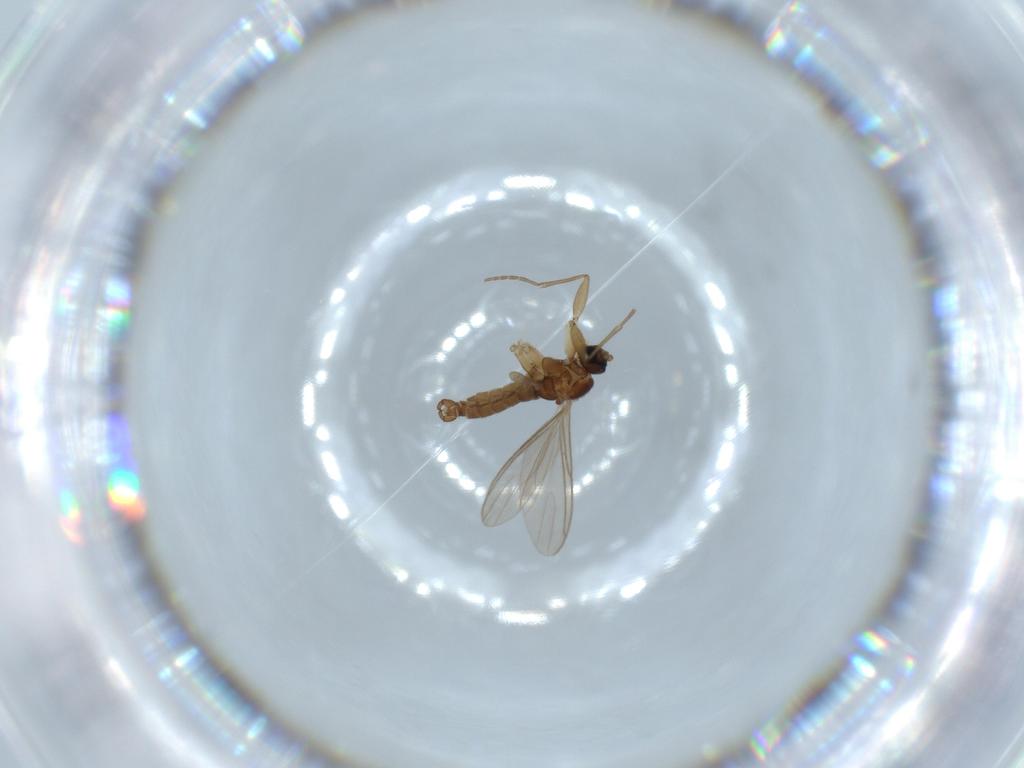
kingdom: Animalia
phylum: Arthropoda
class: Insecta
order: Diptera
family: Sciaridae
